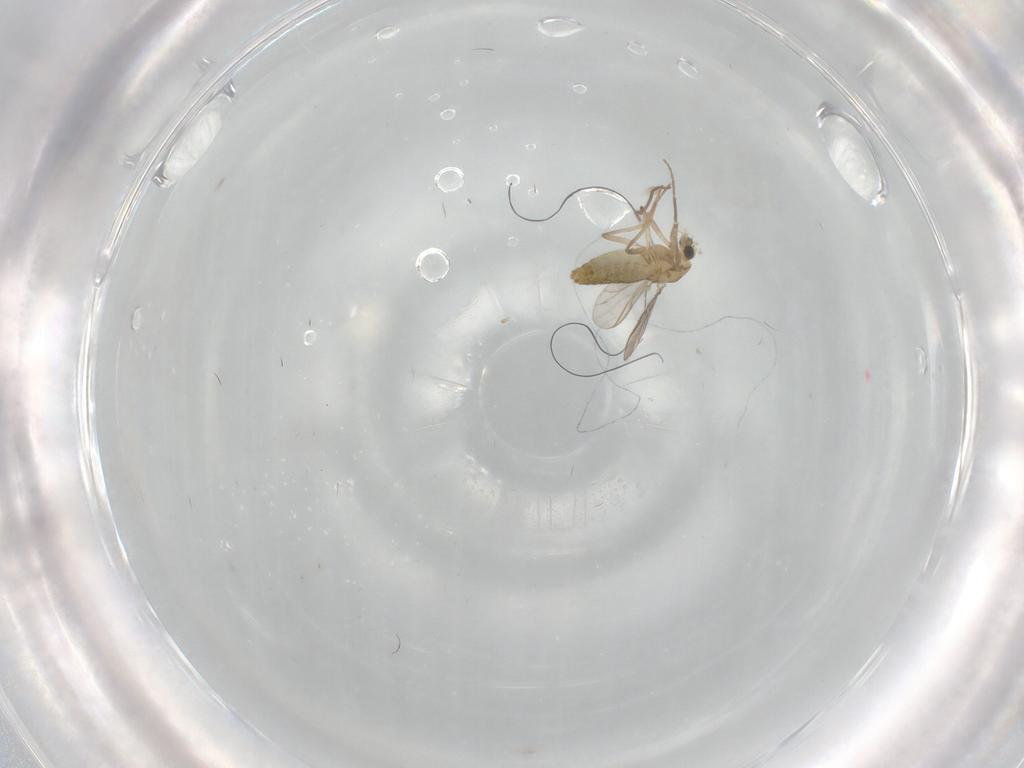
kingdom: Animalia
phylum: Arthropoda
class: Insecta
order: Diptera
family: Chironomidae
